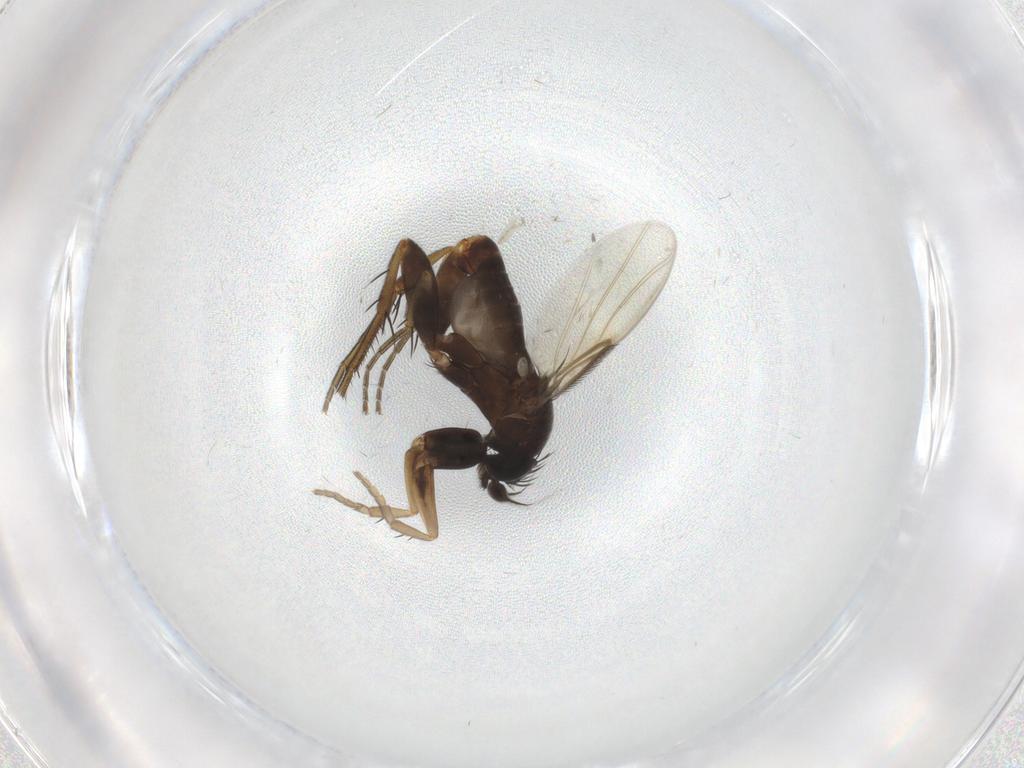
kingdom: Animalia
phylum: Arthropoda
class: Insecta
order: Diptera
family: Phoridae
